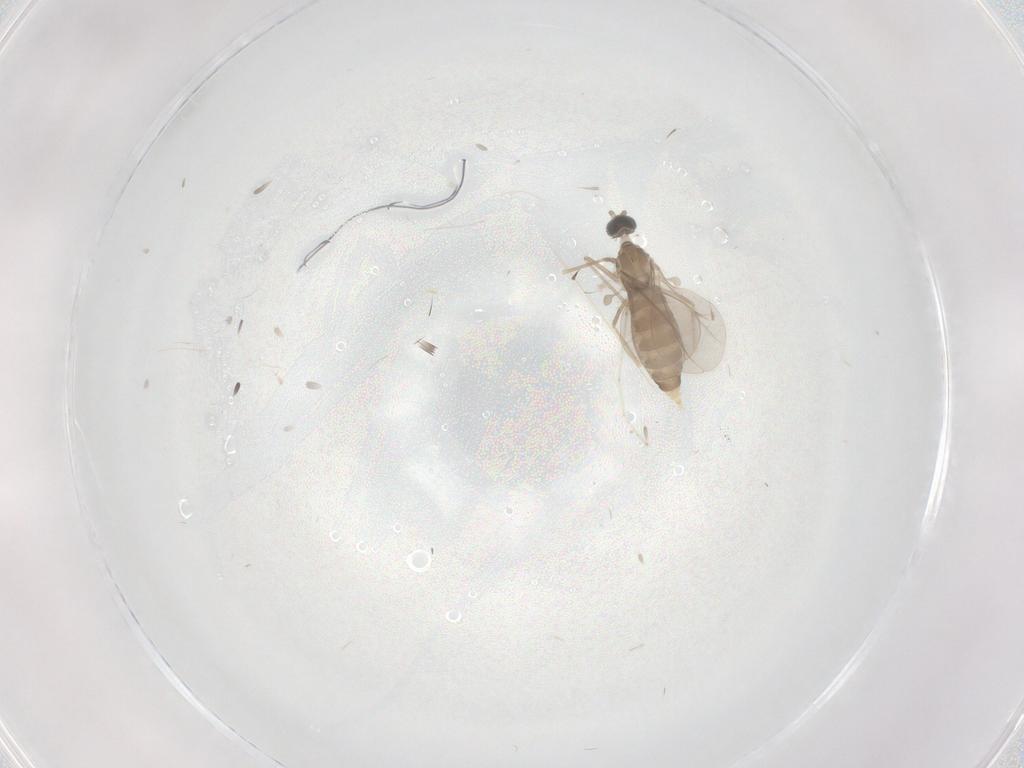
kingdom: Animalia
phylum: Arthropoda
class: Insecta
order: Diptera
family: Cecidomyiidae
